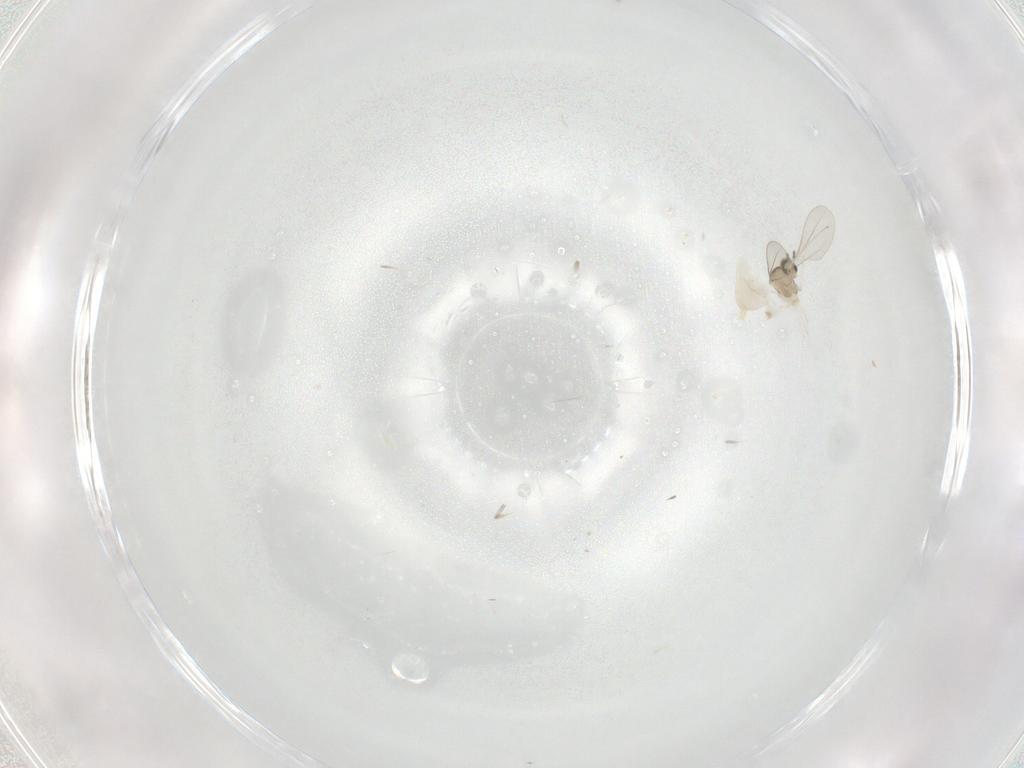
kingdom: Animalia
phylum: Arthropoda
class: Insecta
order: Diptera
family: Cecidomyiidae
